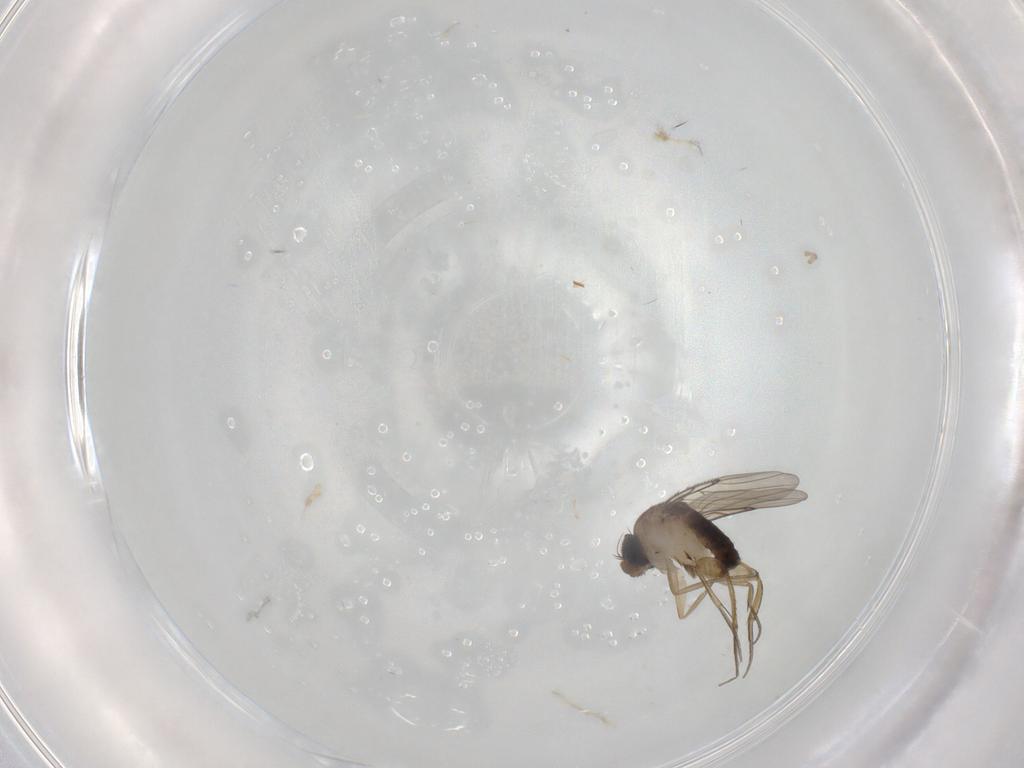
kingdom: Animalia
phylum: Arthropoda
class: Insecta
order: Diptera
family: Phoridae
